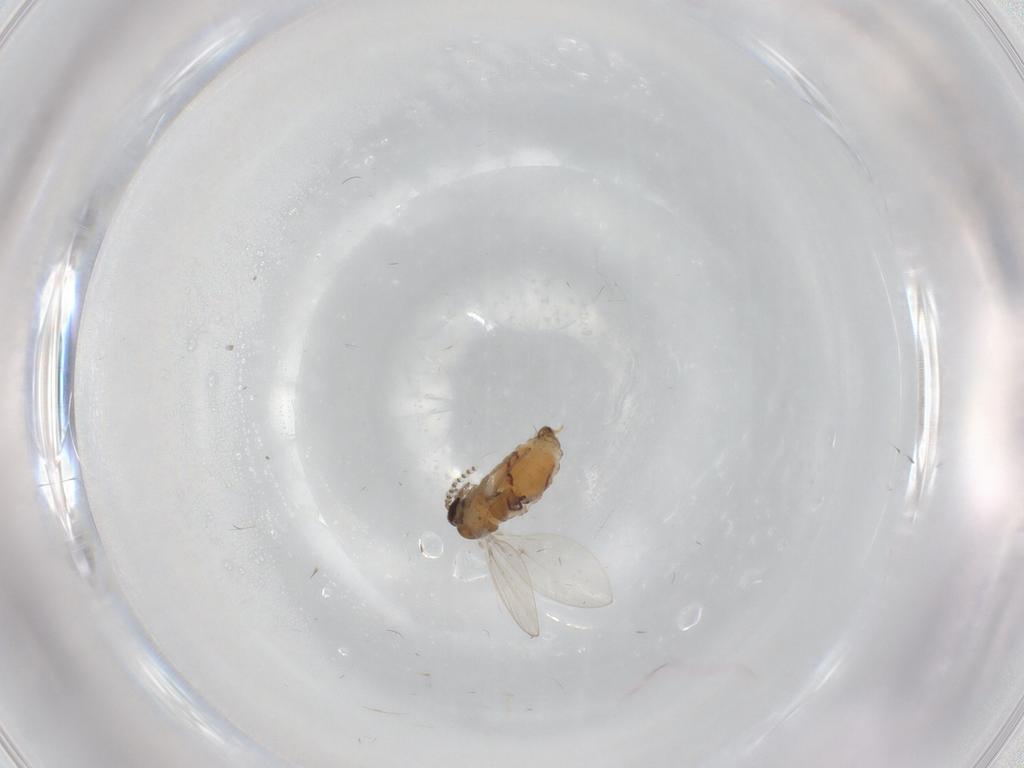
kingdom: Animalia
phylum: Arthropoda
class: Insecta
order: Diptera
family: Psychodidae
